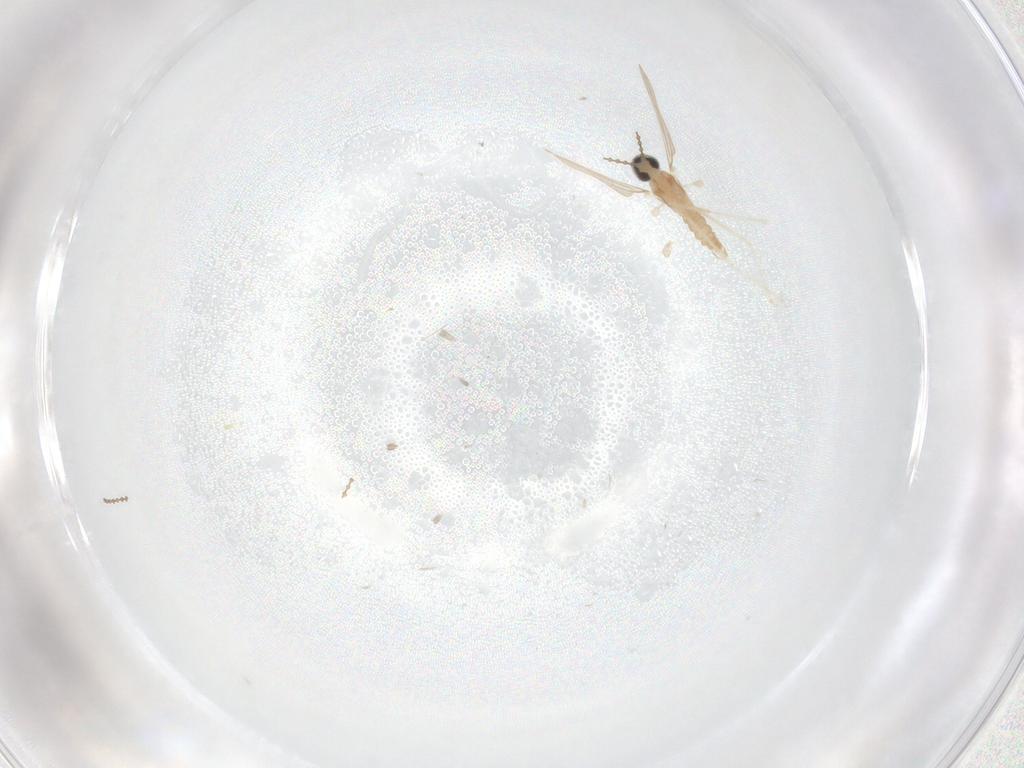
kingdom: Animalia
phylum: Arthropoda
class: Insecta
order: Diptera
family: Cecidomyiidae
